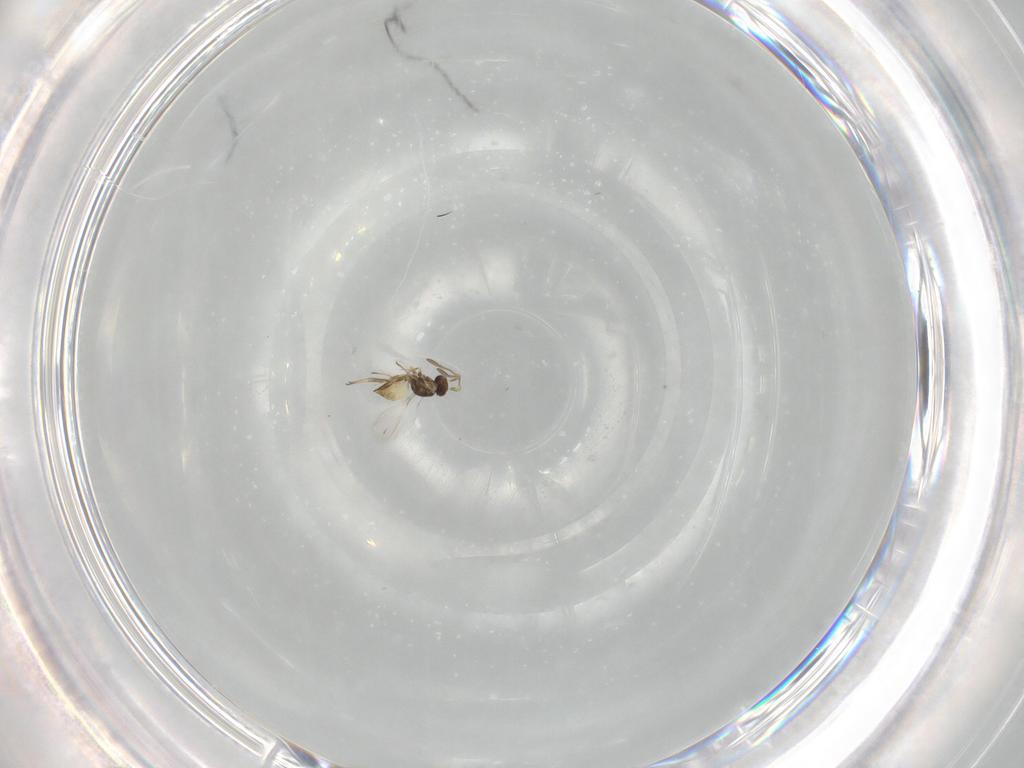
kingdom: Animalia
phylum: Arthropoda
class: Insecta
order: Hymenoptera
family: Mymaridae
